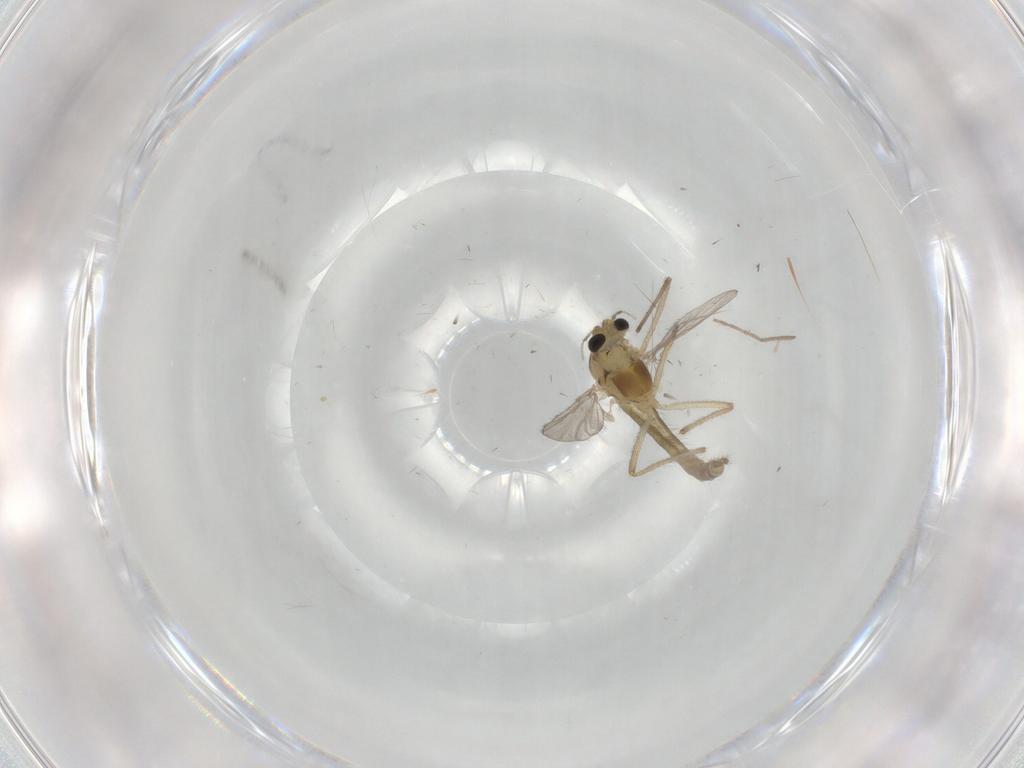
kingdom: Animalia
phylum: Arthropoda
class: Insecta
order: Diptera
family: Chironomidae
